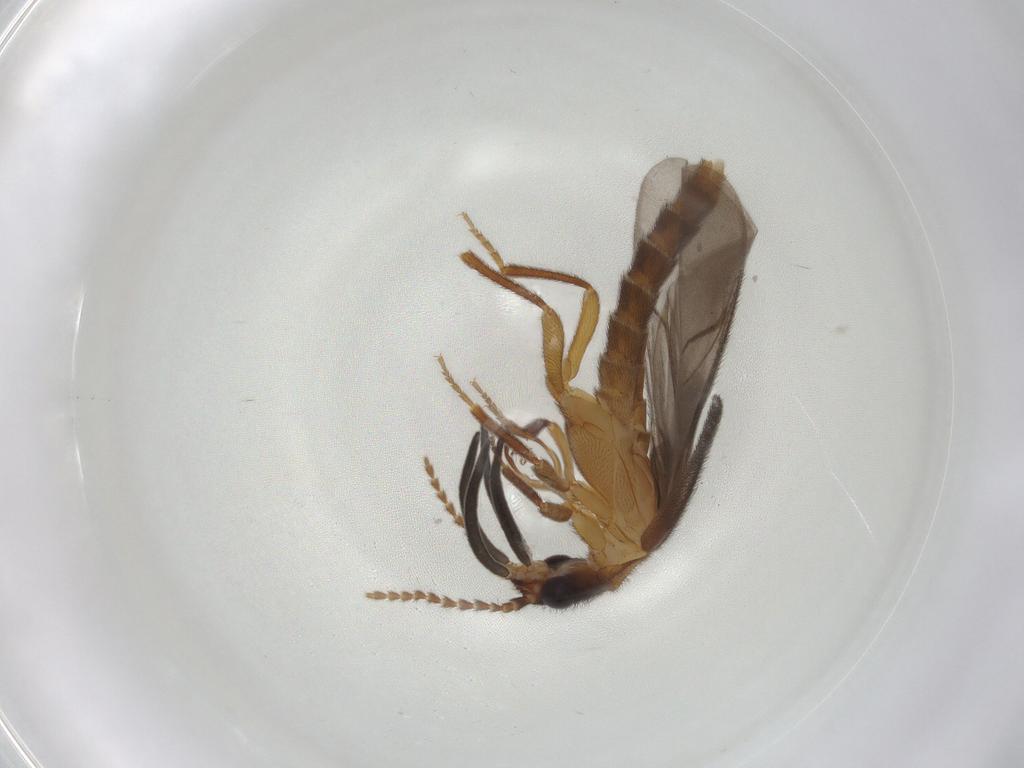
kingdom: Animalia
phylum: Arthropoda
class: Insecta
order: Hemiptera
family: Cercopidae
